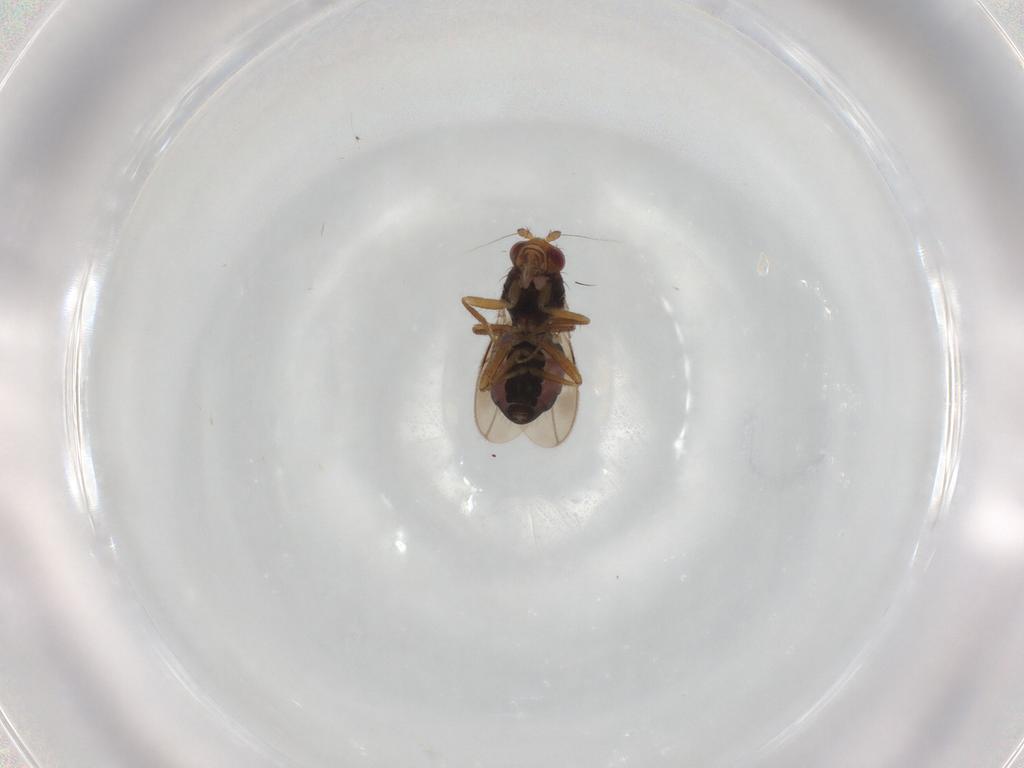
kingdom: Animalia
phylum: Arthropoda
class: Insecta
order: Diptera
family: Sphaeroceridae
